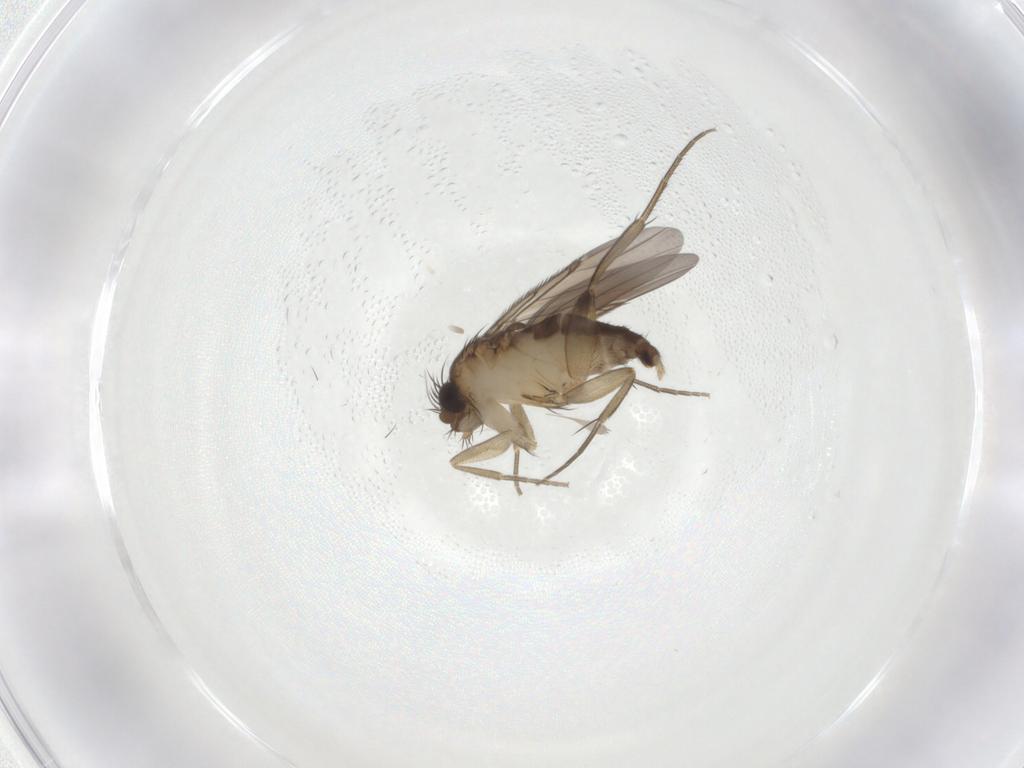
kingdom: Animalia
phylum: Arthropoda
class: Insecta
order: Diptera
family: Phoridae
